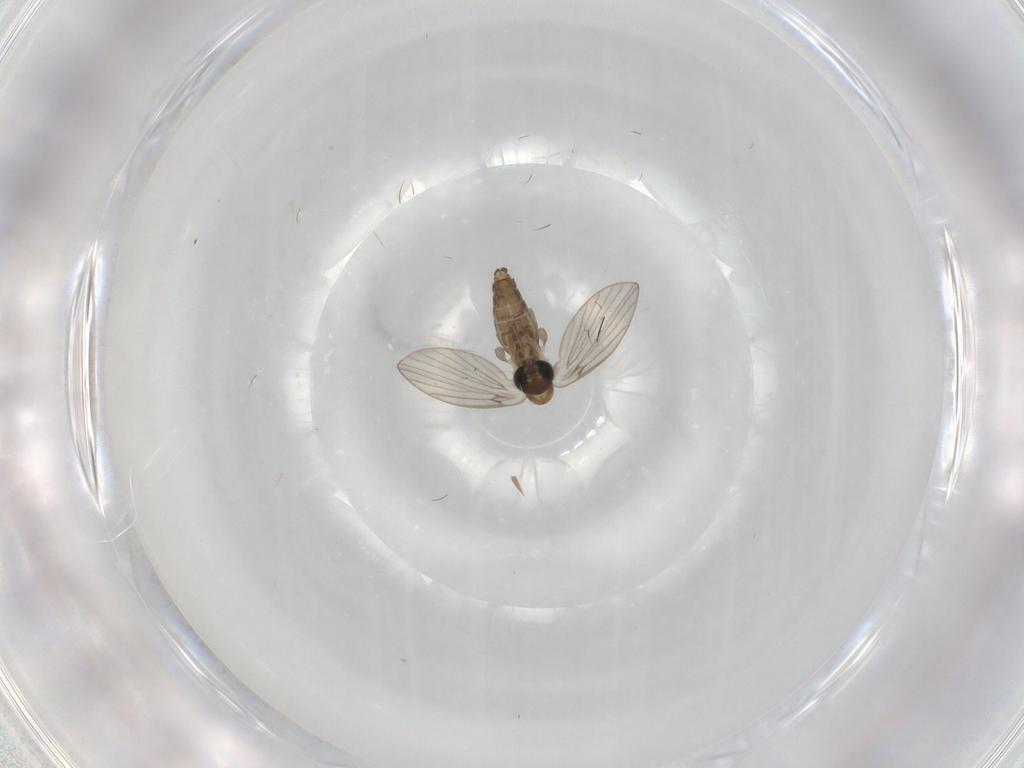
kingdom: Animalia
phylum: Arthropoda
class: Insecta
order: Diptera
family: Psychodidae
